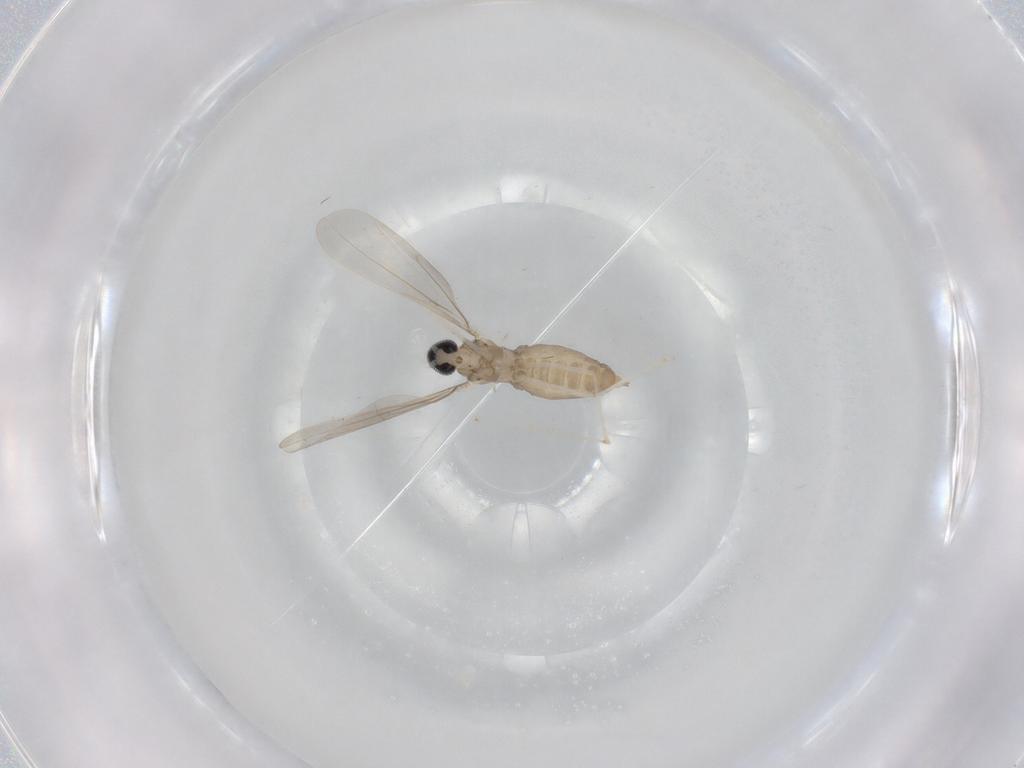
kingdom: Animalia
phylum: Arthropoda
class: Insecta
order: Diptera
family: Cecidomyiidae
